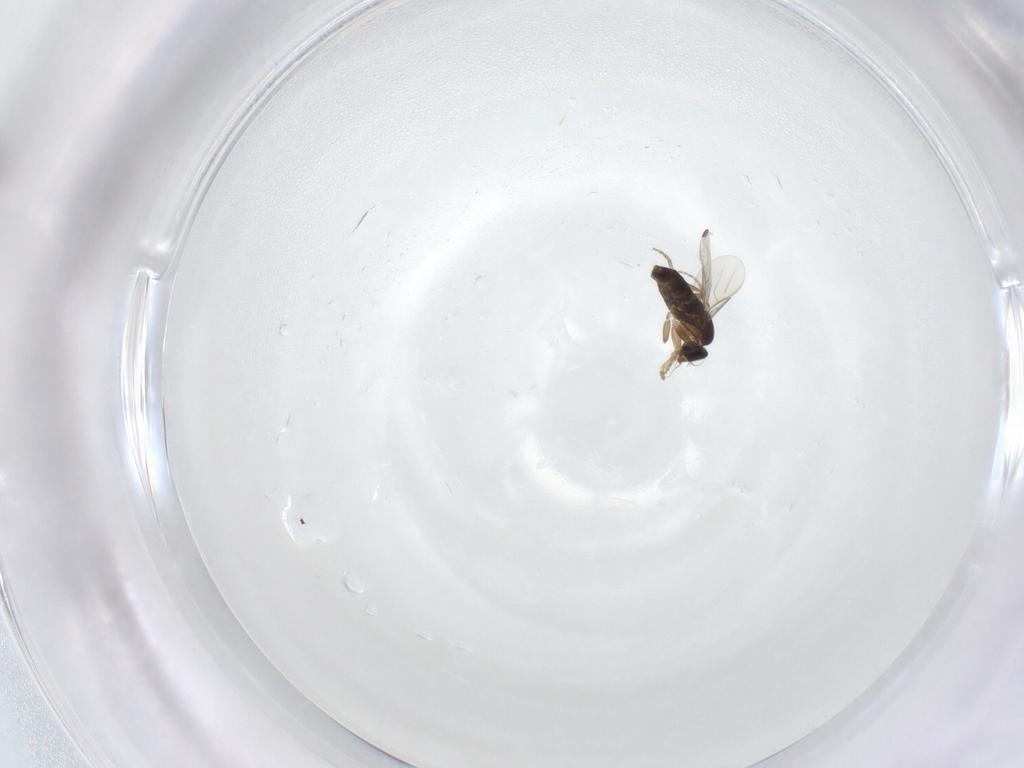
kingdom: Animalia
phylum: Arthropoda
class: Insecta
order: Diptera
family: Phoridae
